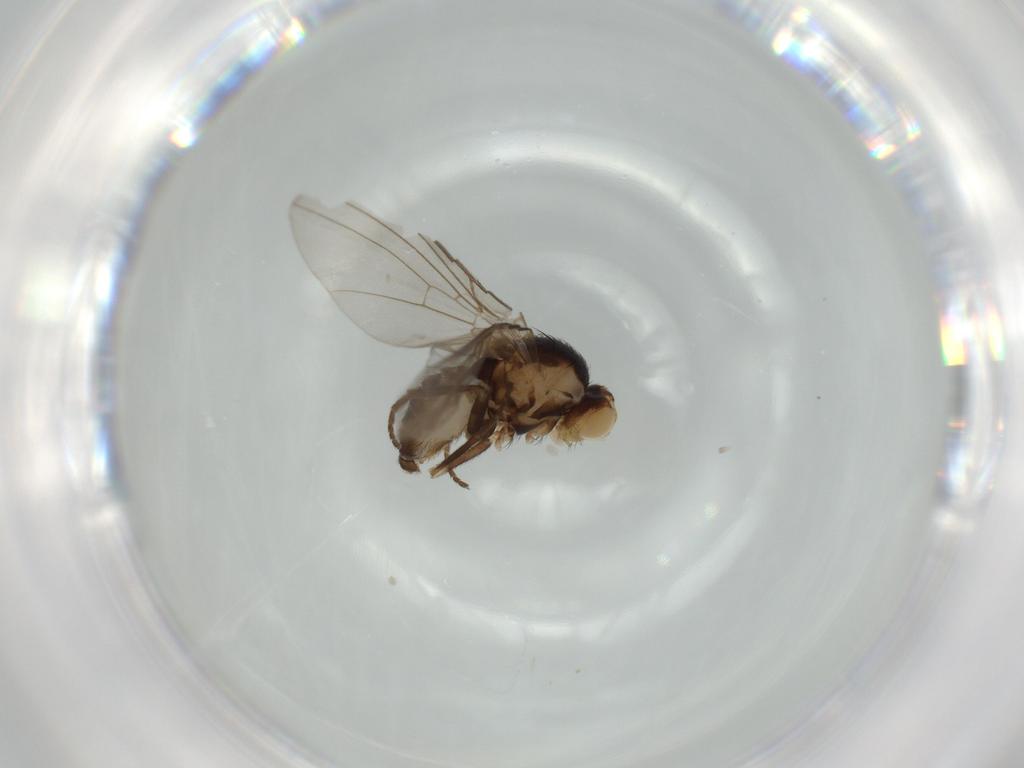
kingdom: Animalia
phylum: Arthropoda
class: Insecta
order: Diptera
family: Agromyzidae
